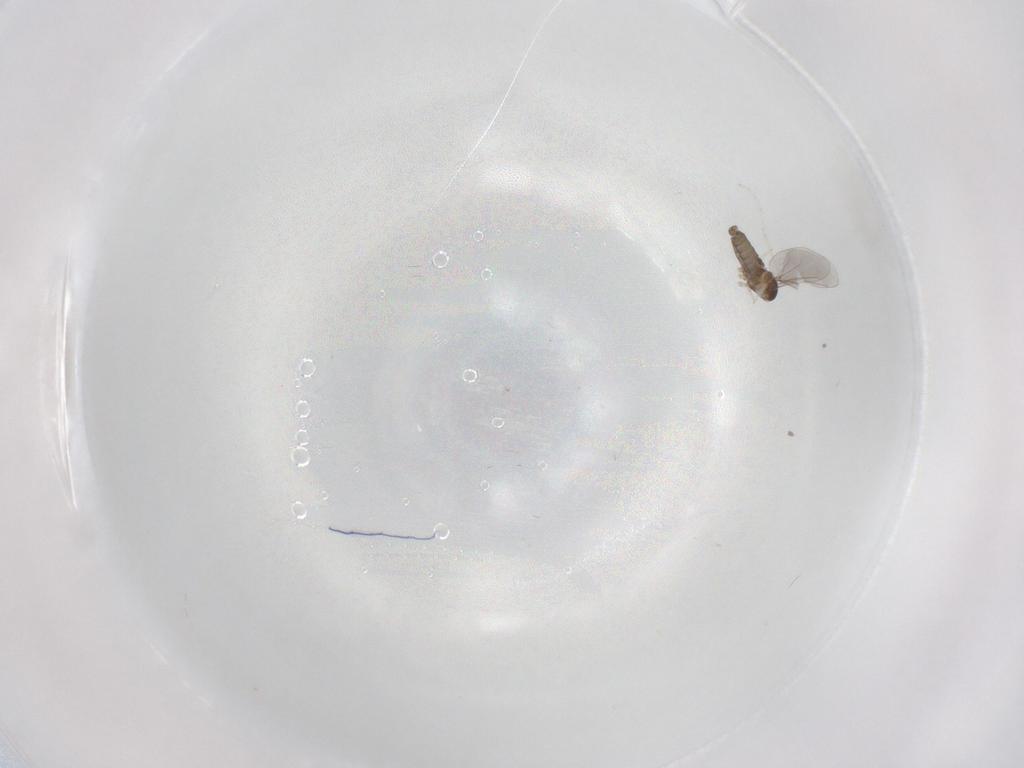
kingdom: Animalia
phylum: Arthropoda
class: Insecta
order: Diptera
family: Cecidomyiidae
